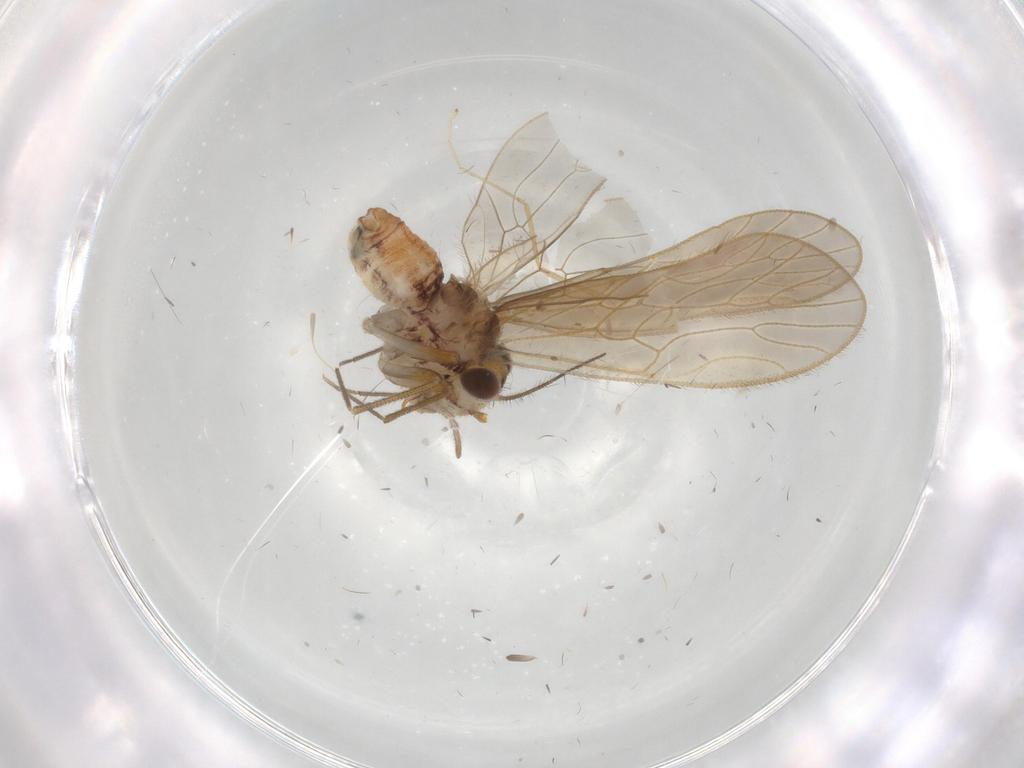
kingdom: Animalia
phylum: Arthropoda
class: Insecta
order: Psocodea
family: Mesopsocidae
